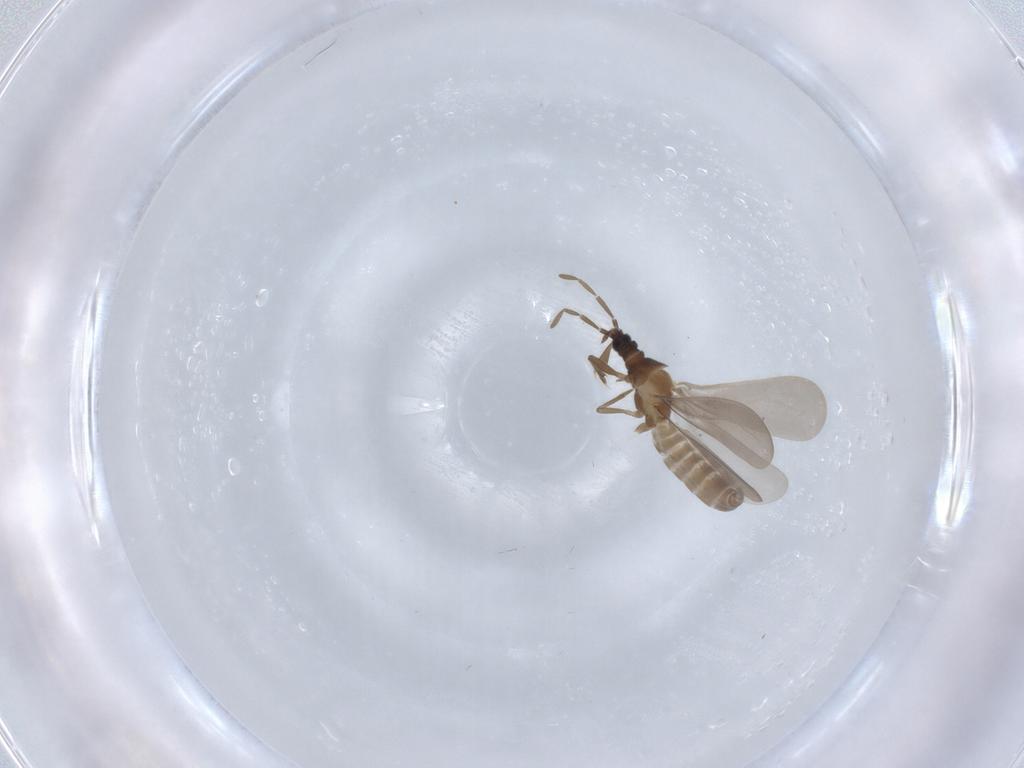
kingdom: Animalia
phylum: Arthropoda
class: Insecta
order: Hemiptera
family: Enicocephalidae
